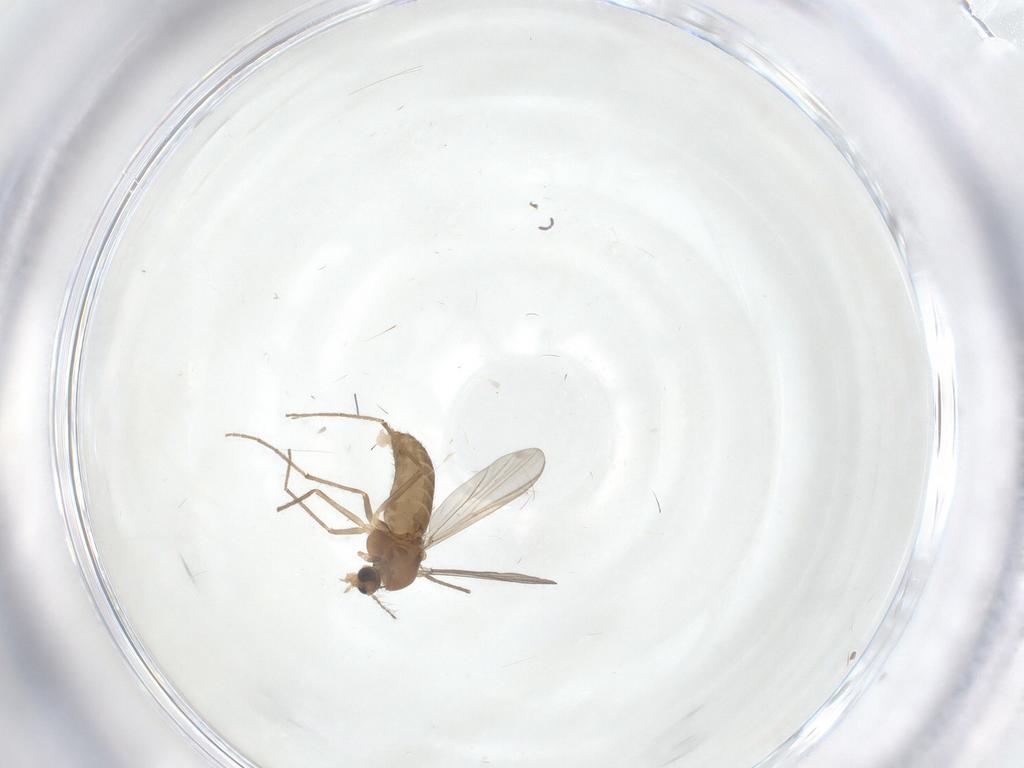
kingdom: Animalia
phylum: Arthropoda
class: Insecta
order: Diptera
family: Chironomidae
